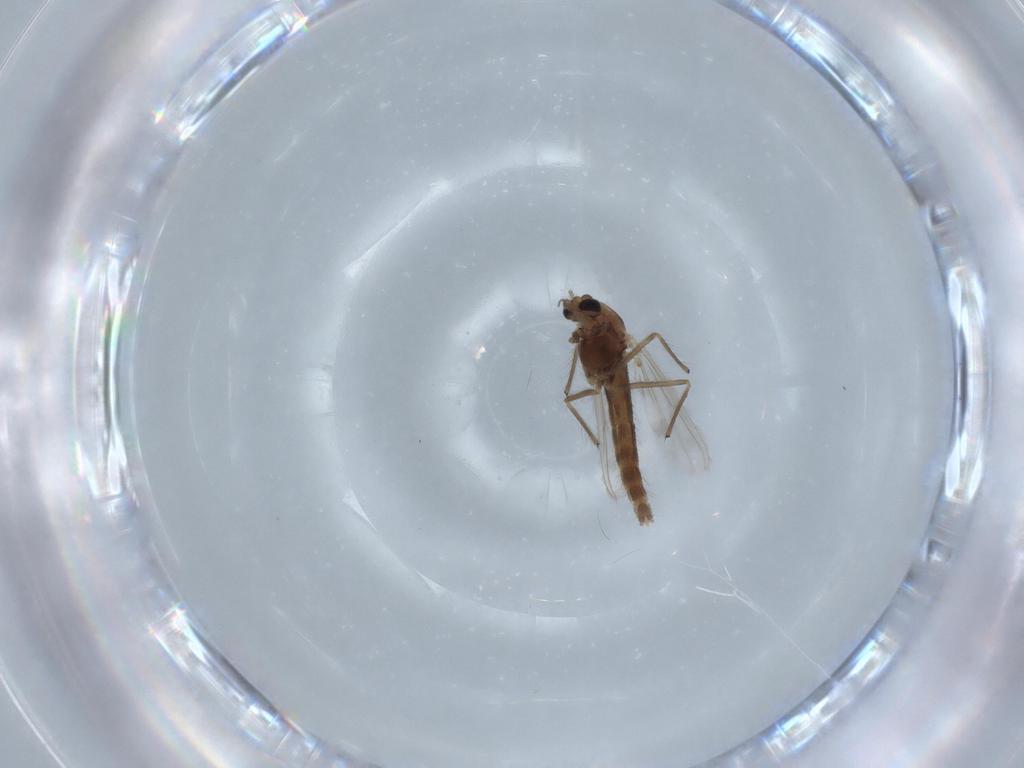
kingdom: Animalia
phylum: Arthropoda
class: Insecta
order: Diptera
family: Chironomidae
